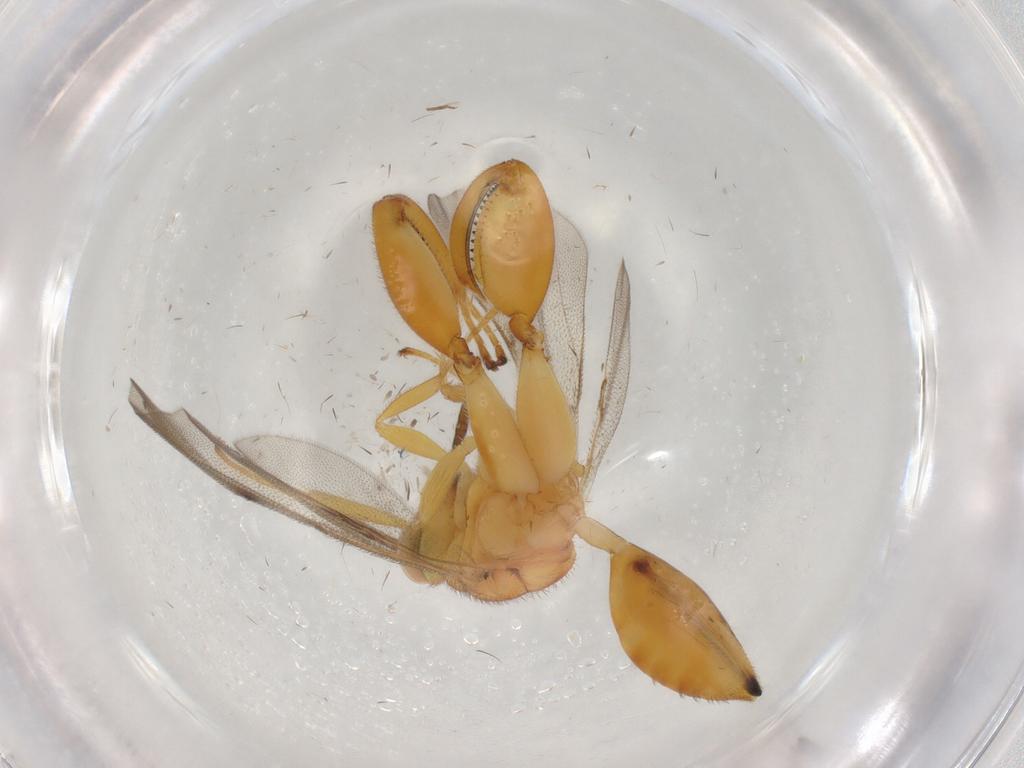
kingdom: Animalia
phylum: Arthropoda
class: Insecta
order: Hymenoptera
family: Chalcididae
